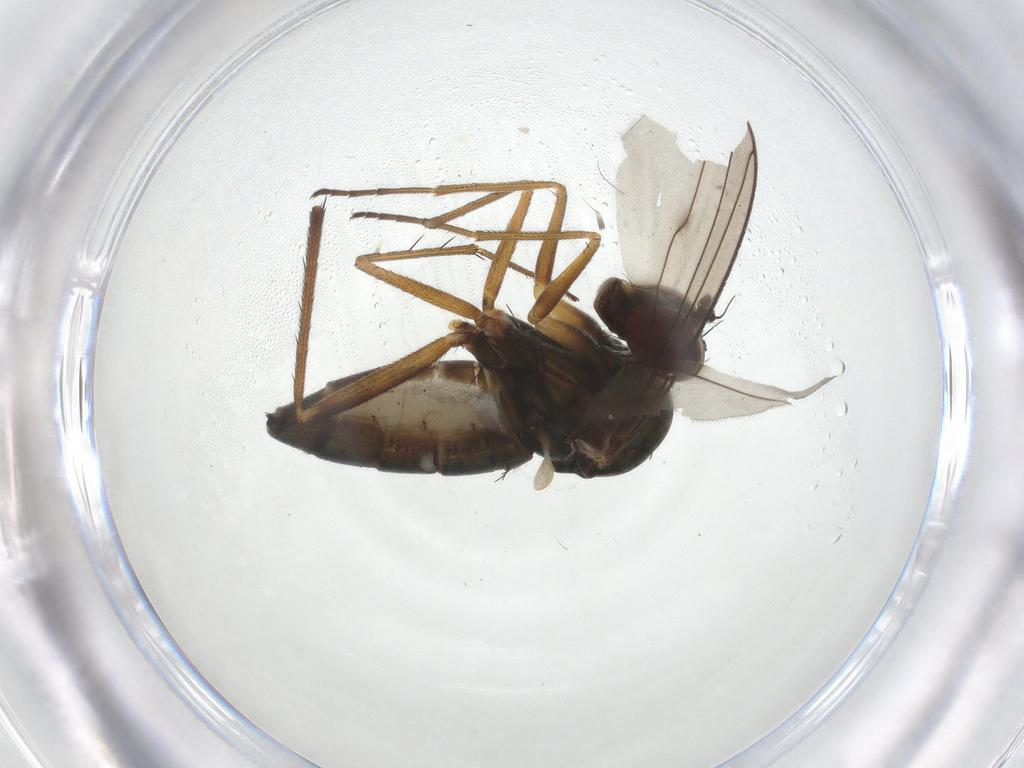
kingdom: Animalia
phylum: Arthropoda
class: Insecta
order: Diptera
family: Dolichopodidae
